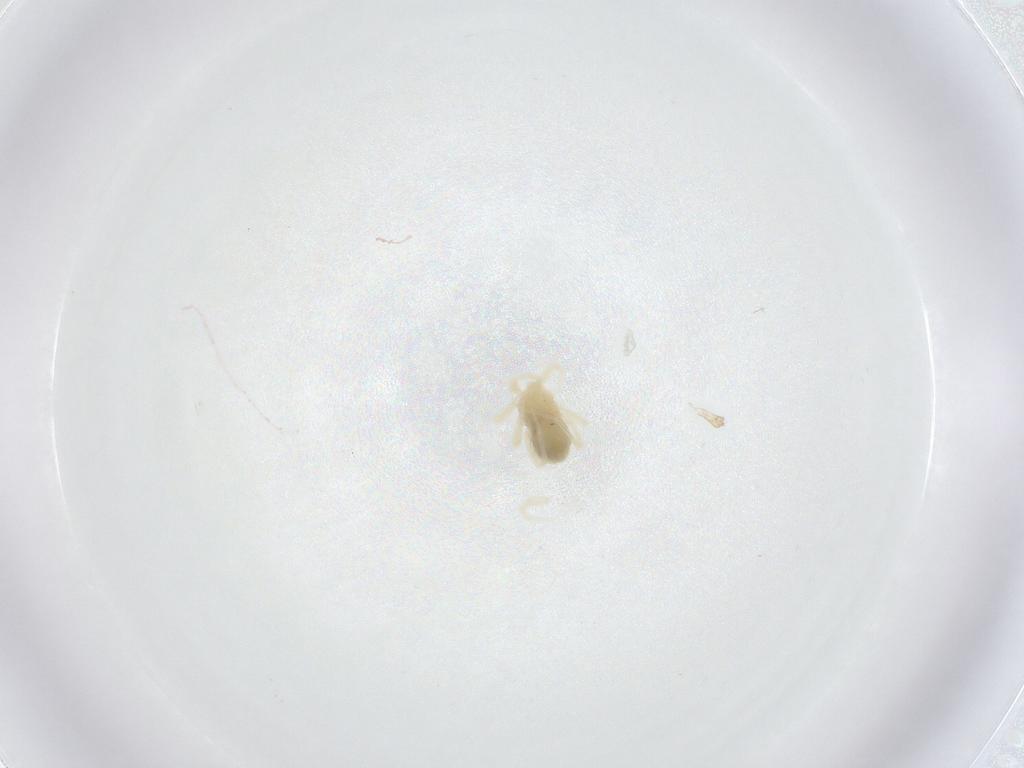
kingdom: Animalia
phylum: Arthropoda
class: Arachnida
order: Trombidiformes
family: Anystidae
